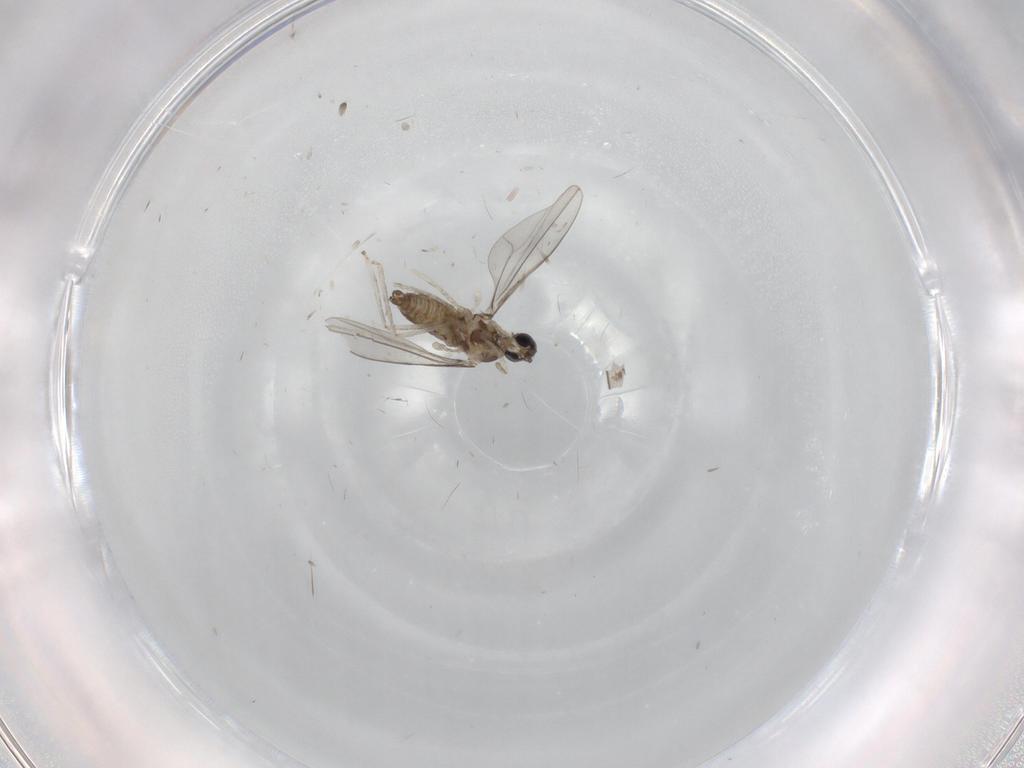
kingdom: Animalia
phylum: Arthropoda
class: Insecta
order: Diptera
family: Cecidomyiidae
